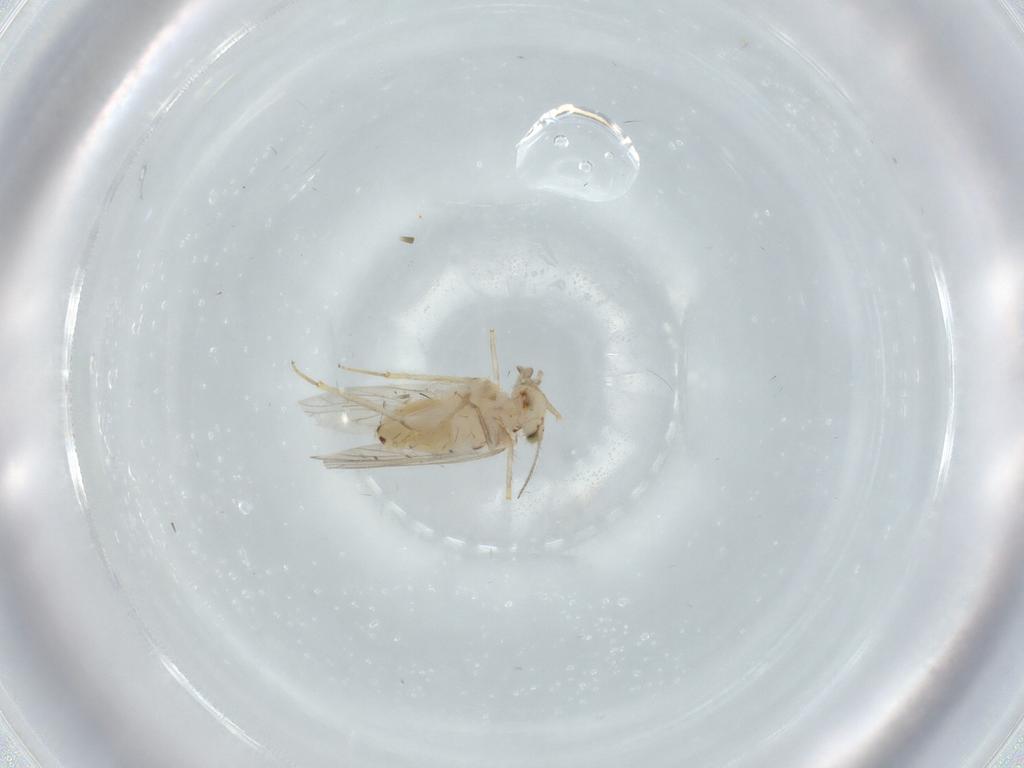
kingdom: Animalia
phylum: Arthropoda
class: Insecta
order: Psocodea
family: Lepidopsocidae
